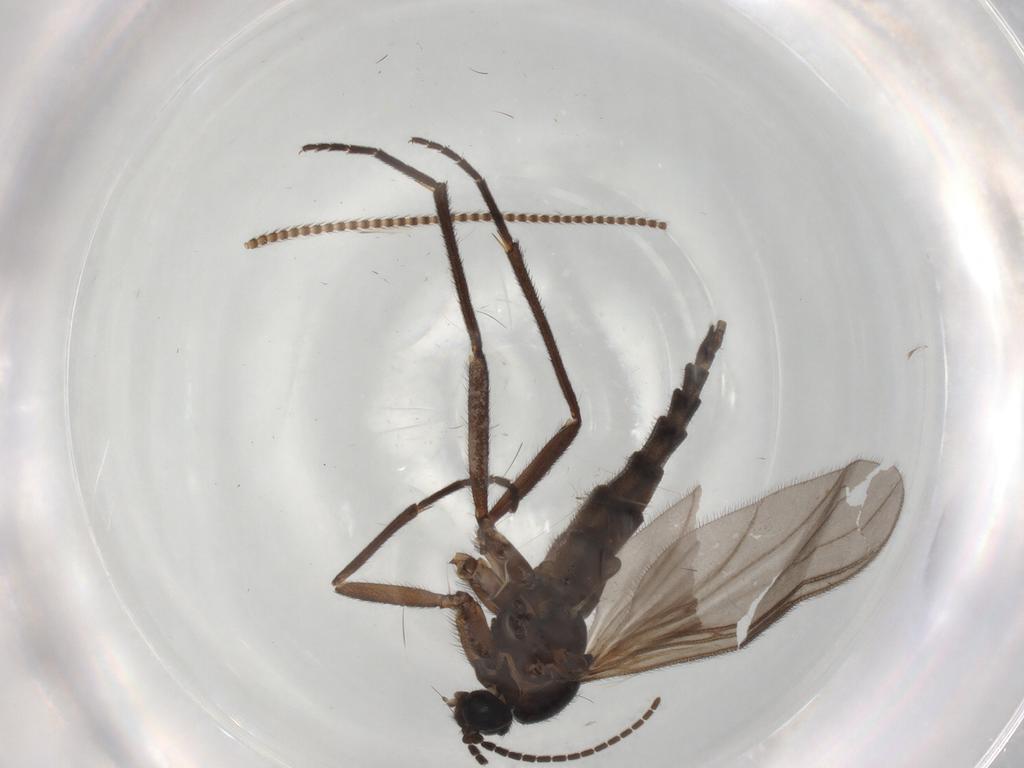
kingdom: Animalia
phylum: Arthropoda
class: Insecta
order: Diptera
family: Sciaridae
